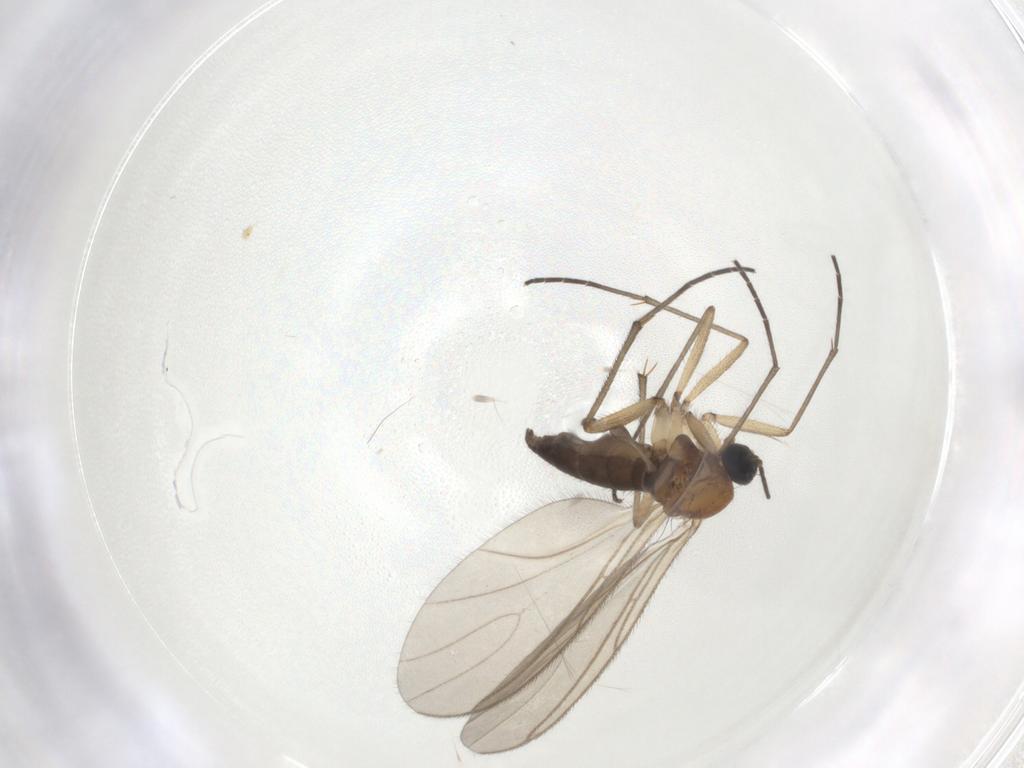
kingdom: Animalia
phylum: Arthropoda
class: Insecta
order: Diptera
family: Sciaridae
